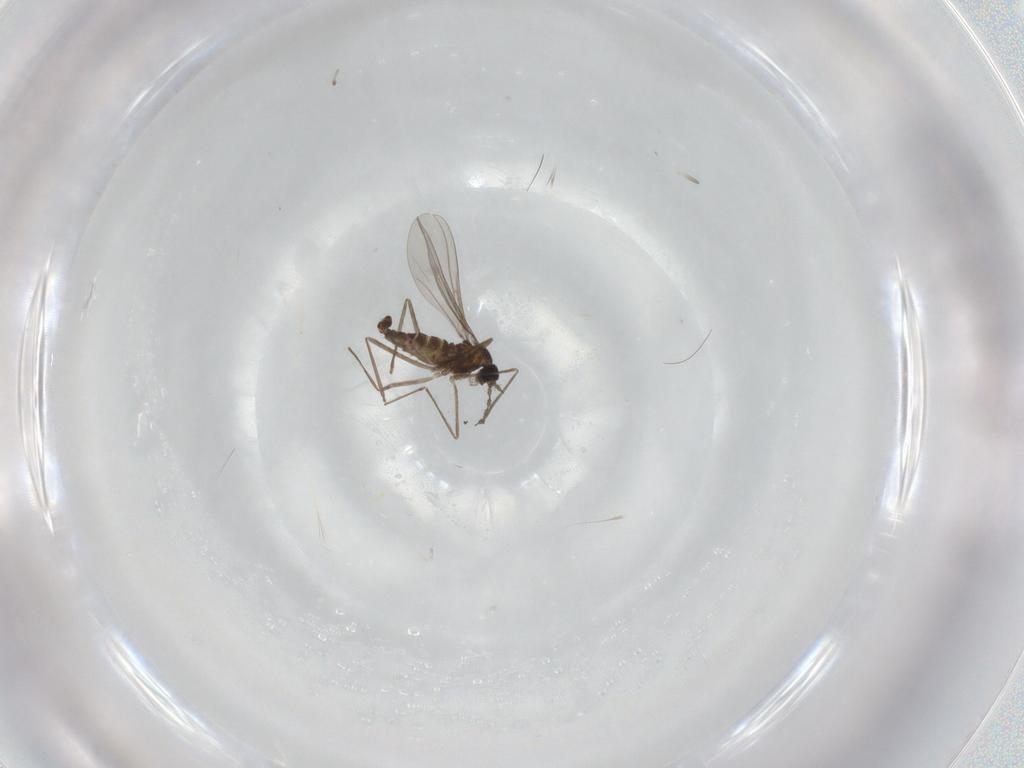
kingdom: Animalia
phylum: Arthropoda
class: Insecta
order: Diptera
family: Cecidomyiidae
